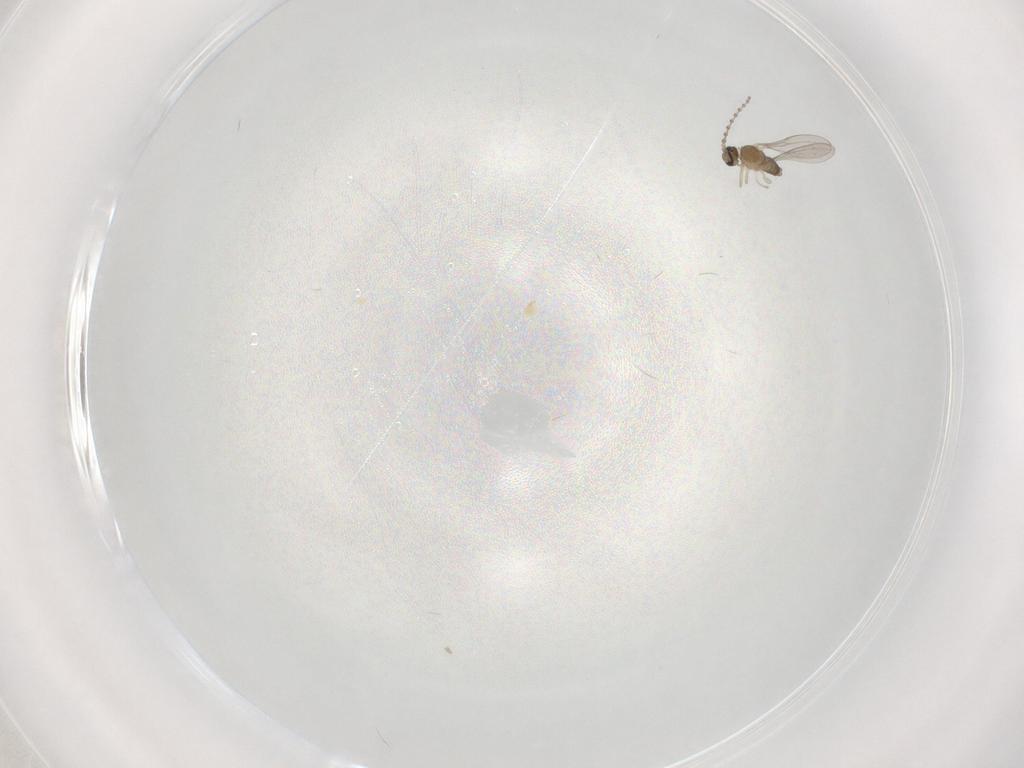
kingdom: Animalia
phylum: Arthropoda
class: Insecta
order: Diptera
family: Cecidomyiidae
